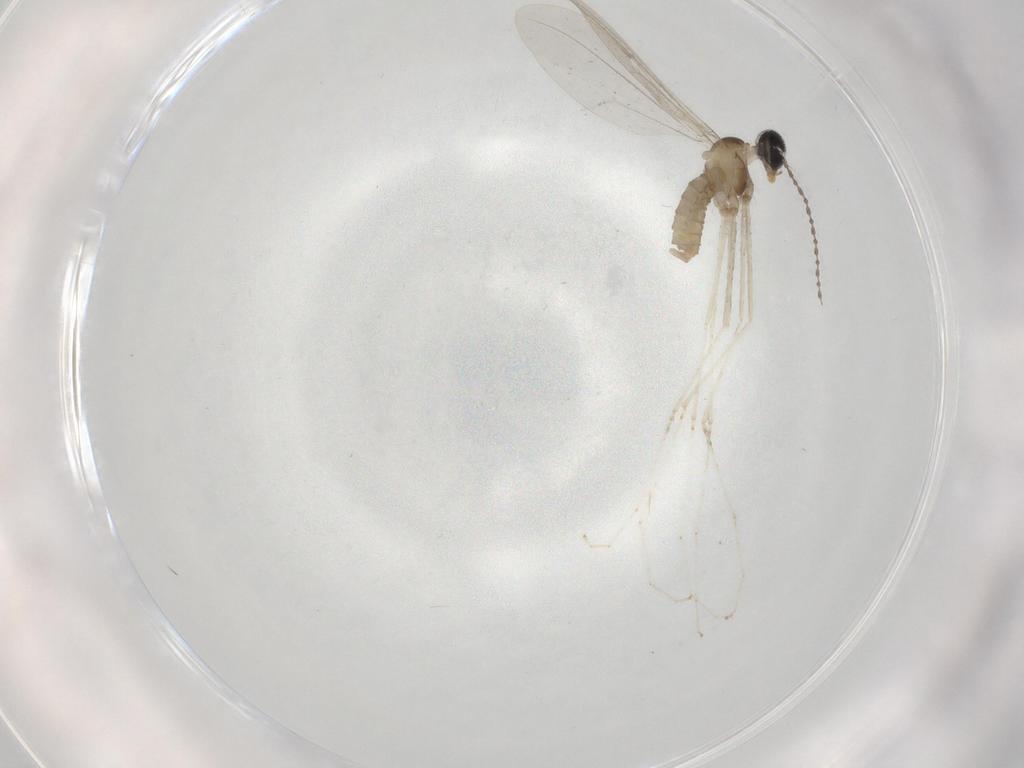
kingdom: Animalia
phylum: Arthropoda
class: Insecta
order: Diptera
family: Cecidomyiidae
